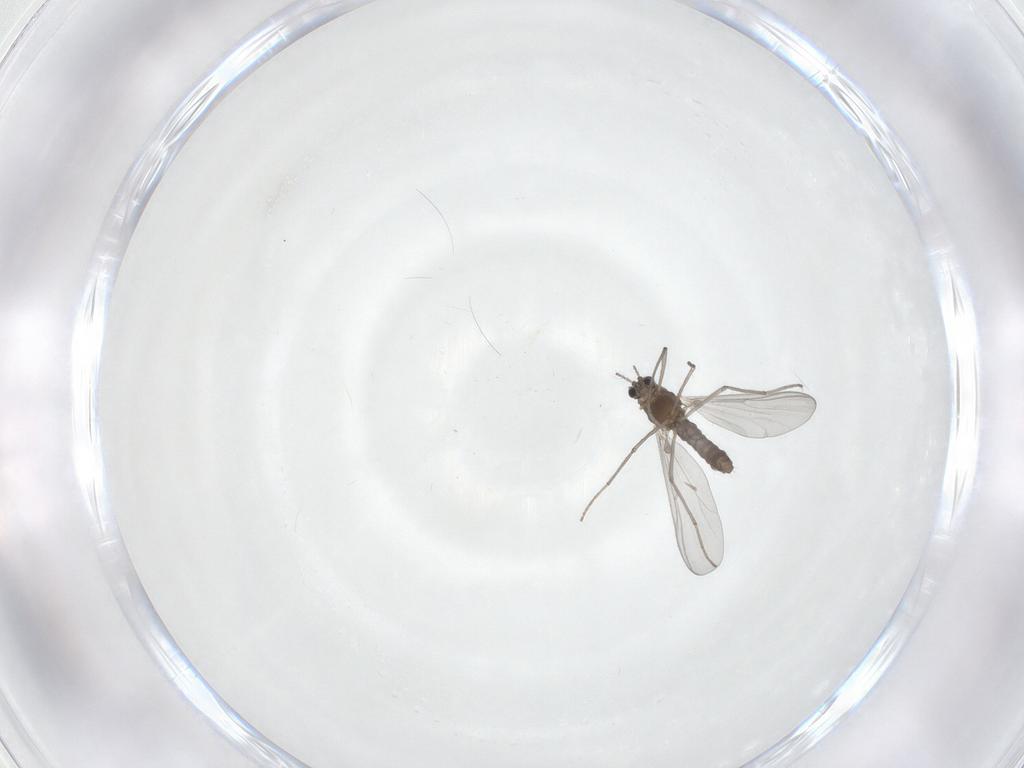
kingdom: Animalia
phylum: Arthropoda
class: Insecta
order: Diptera
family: Chironomidae
